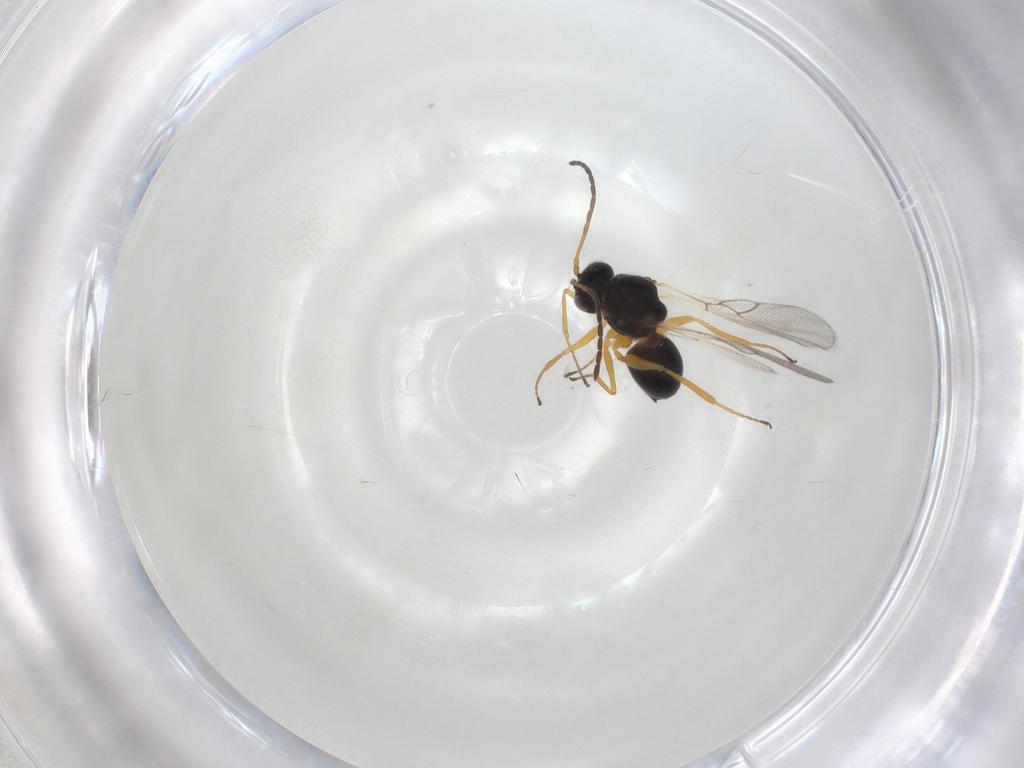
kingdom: Animalia
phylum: Arthropoda
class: Insecta
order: Hymenoptera
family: Figitidae
